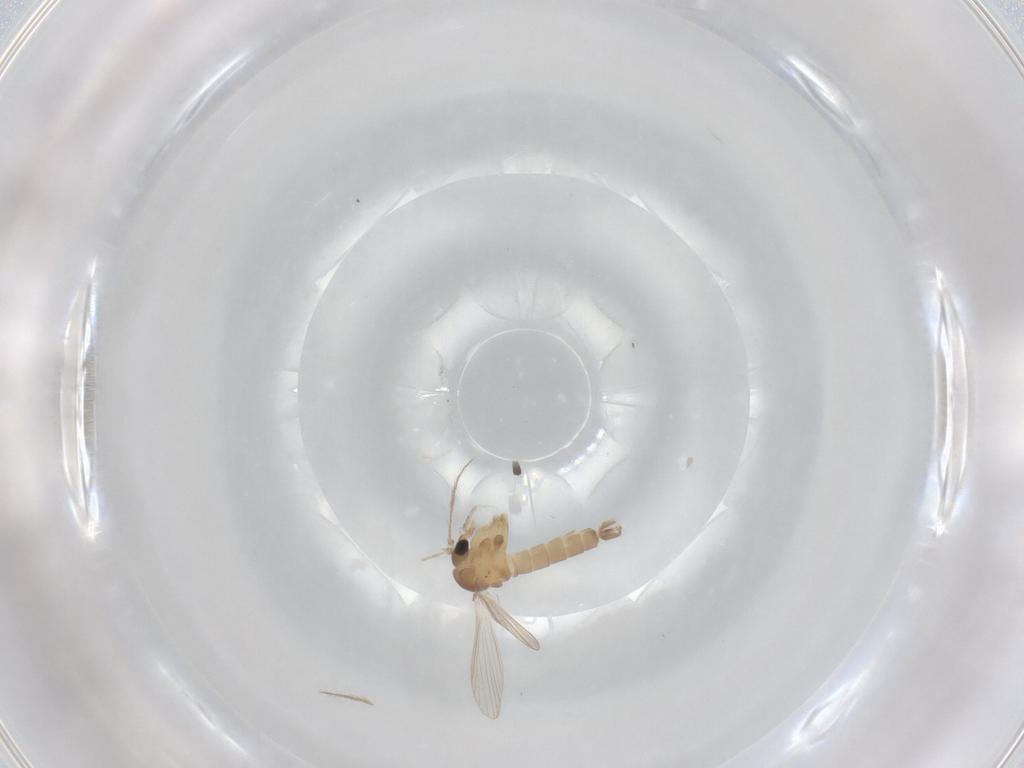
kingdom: Animalia
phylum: Arthropoda
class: Insecta
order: Diptera
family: Psychodidae
